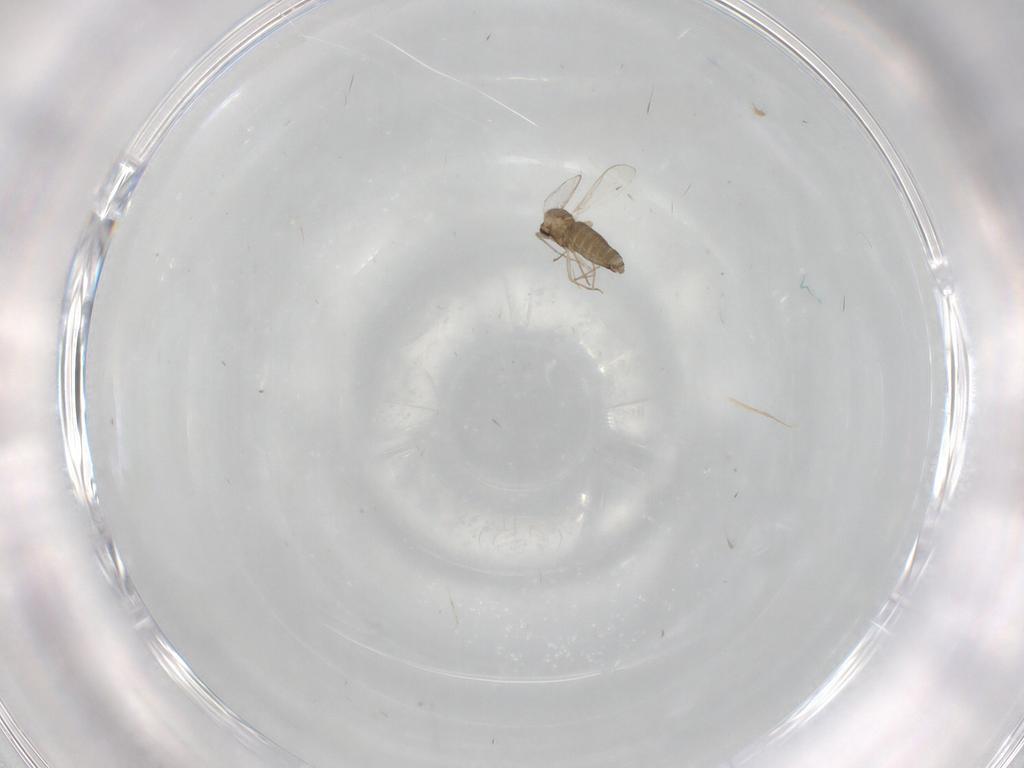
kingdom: Animalia
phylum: Arthropoda
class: Insecta
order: Diptera
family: Chironomidae
